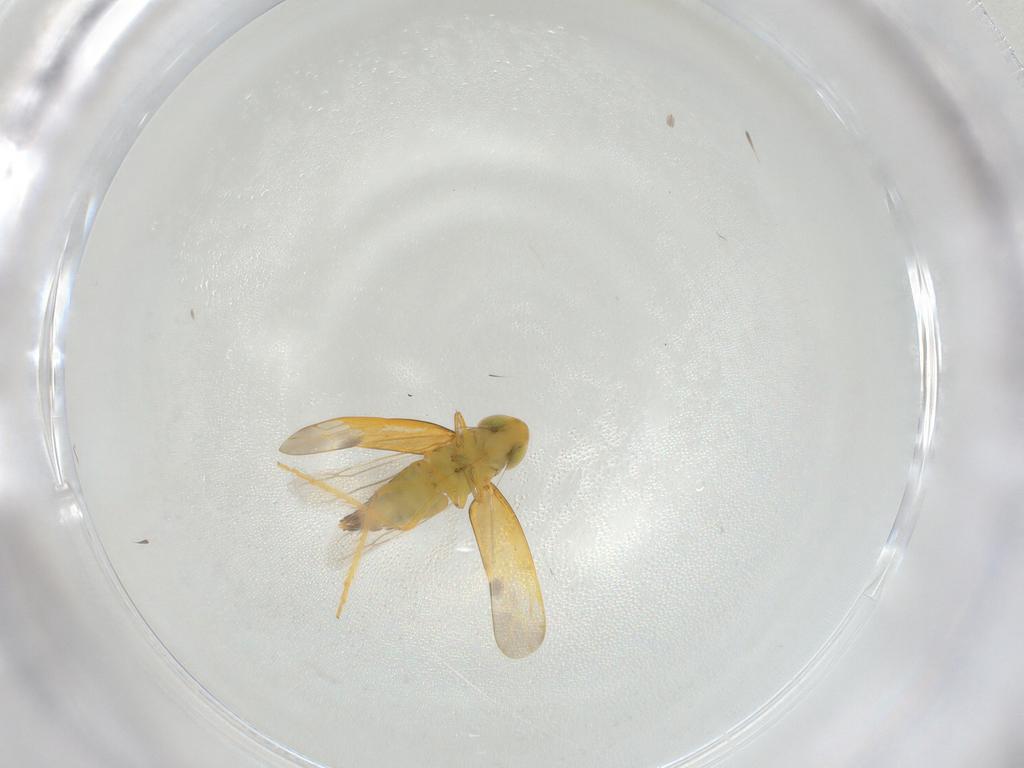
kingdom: Animalia
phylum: Arthropoda
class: Insecta
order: Hemiptera
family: Cicadellidae
